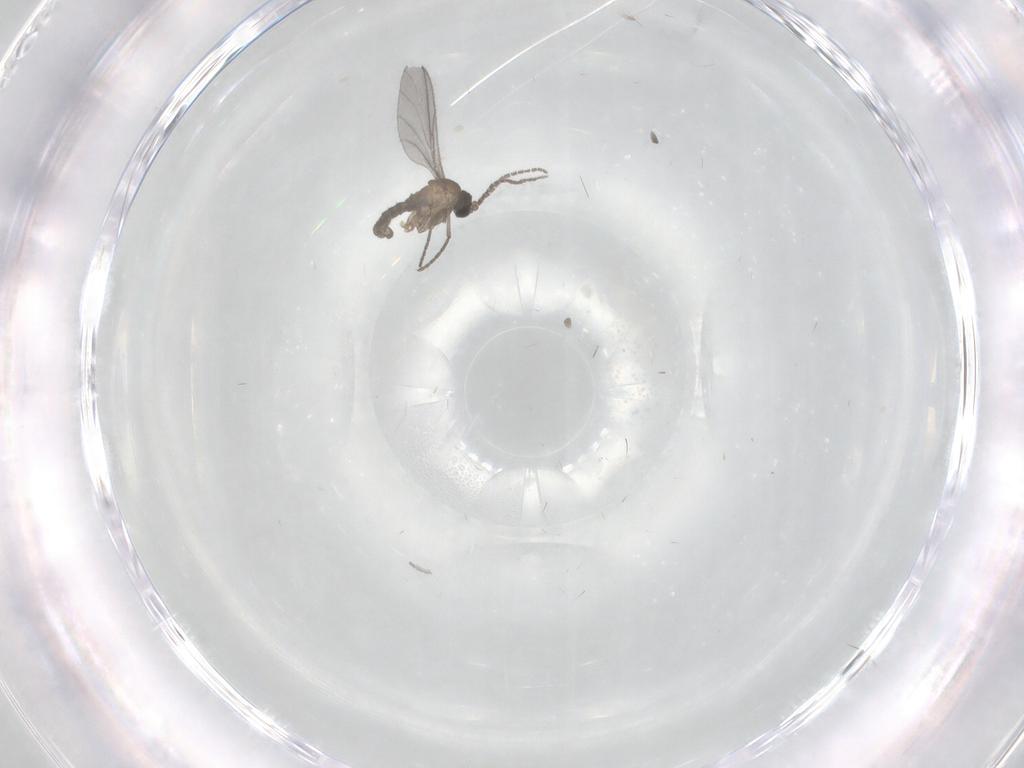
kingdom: Animalia
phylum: Arthropoda
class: Insecta
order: Diptera
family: Sciaridae
